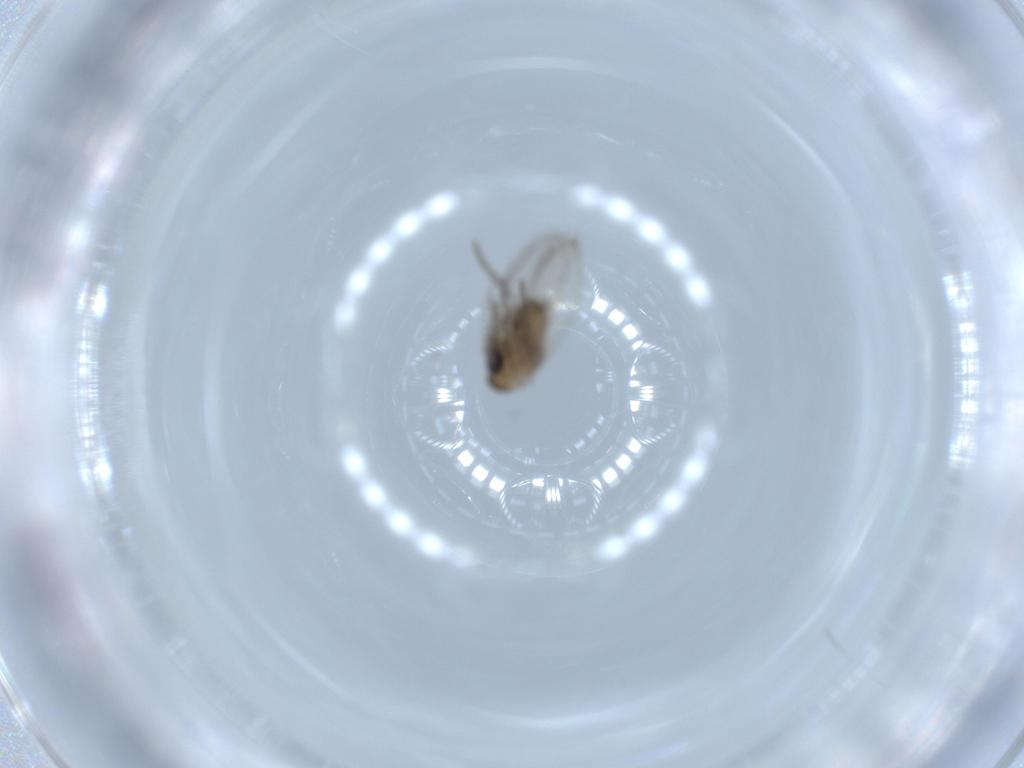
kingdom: Animalia
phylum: Arthropoda
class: Insecta
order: Diptera
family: Psychodidae
